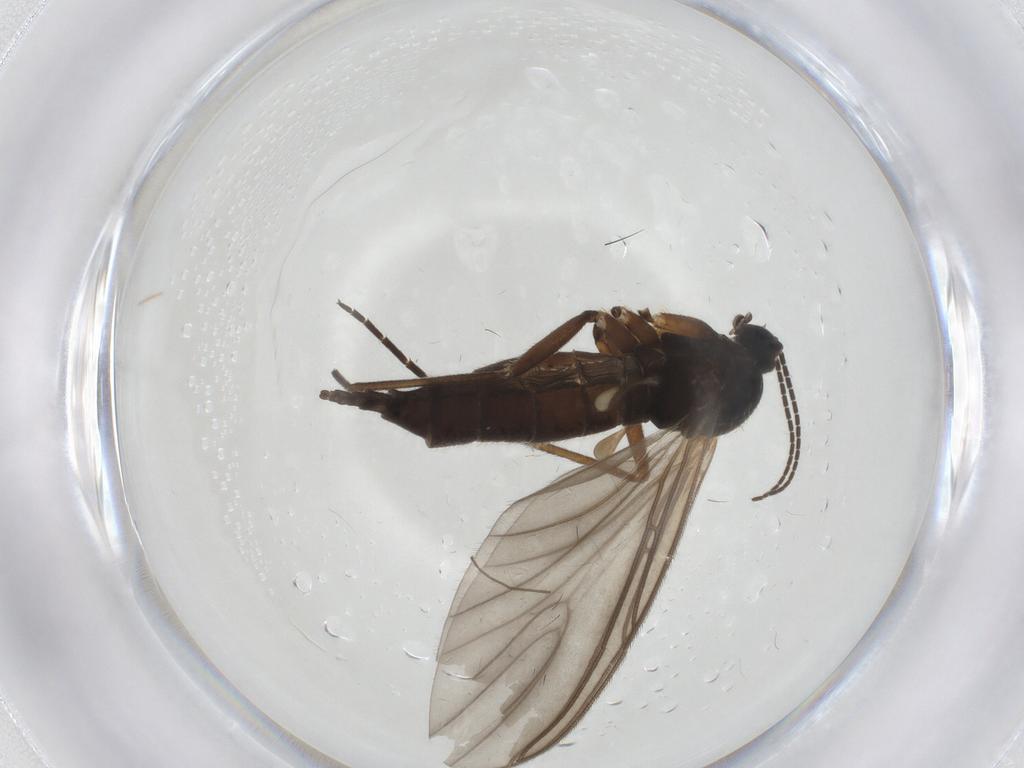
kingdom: Animalia
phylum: Arthropoda
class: Insecta
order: Diptera
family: Sciaridae
